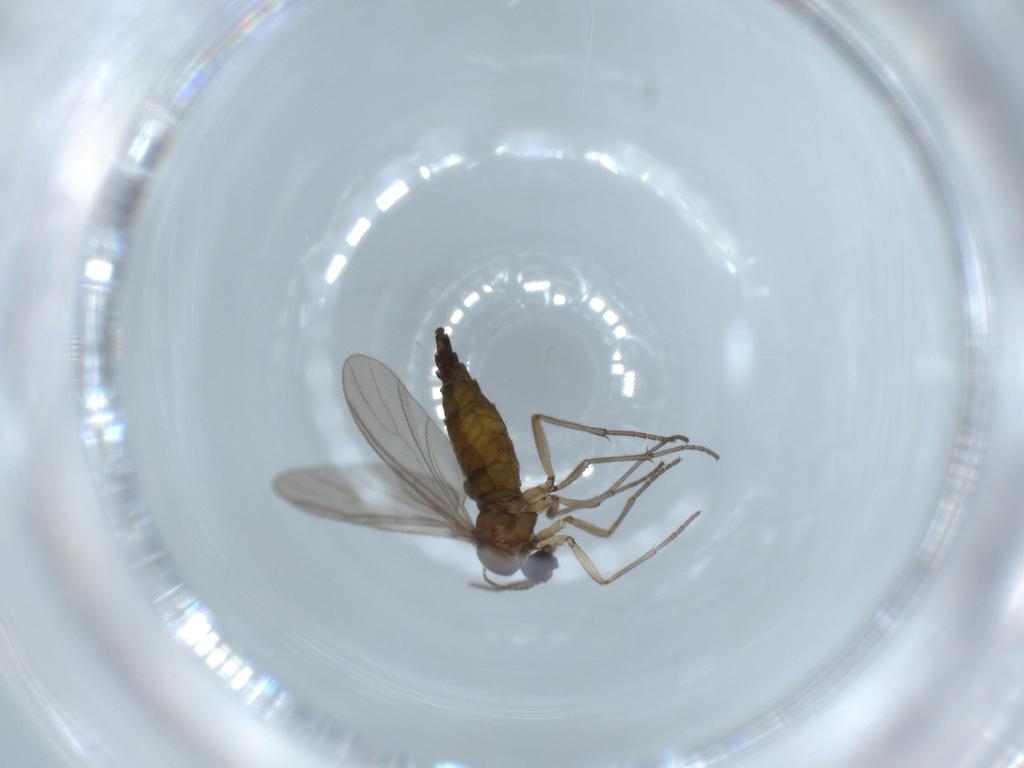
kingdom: Animalia
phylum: Arthropoda
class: Insecta
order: Diptera
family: Sciaridae
